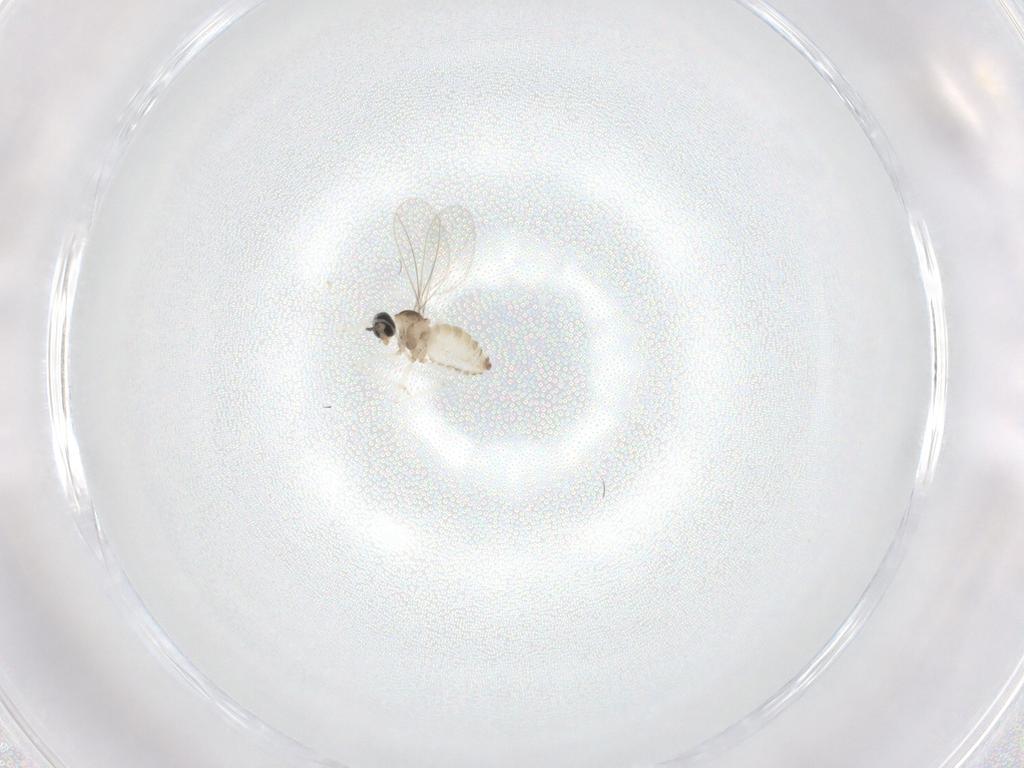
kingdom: Animalia
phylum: Arthropoda
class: Insecta
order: Diptera
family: Cecidomyiidae
